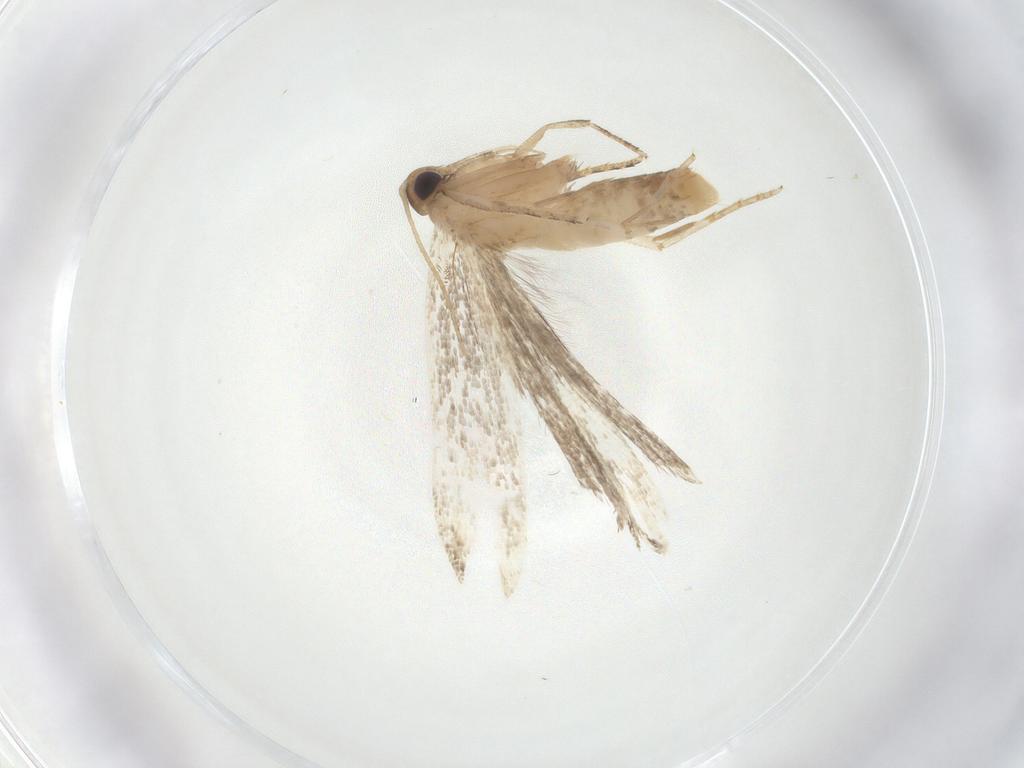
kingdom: Animalia
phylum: Arthropoda
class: Insecta
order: Lepidoptera
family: Gelechiidae
